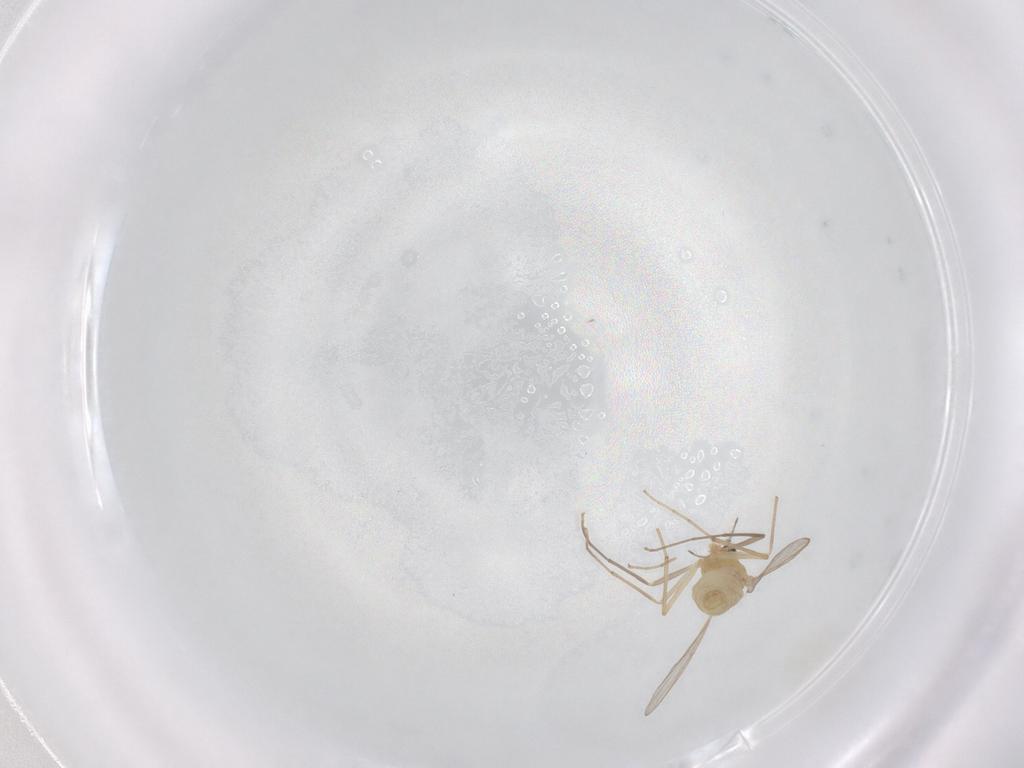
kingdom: Animalia
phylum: Arthropoda
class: Insecta
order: Diptera
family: Chironomidae
